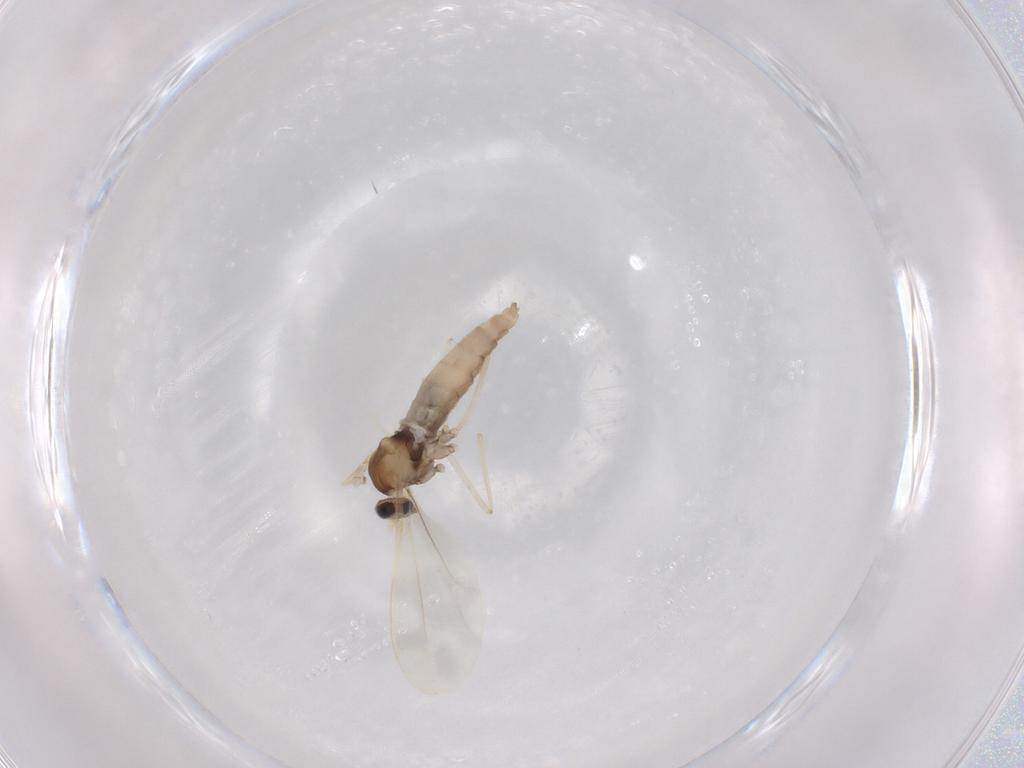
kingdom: Animalia
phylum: Arthropoda
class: Insecta
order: Diptera
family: Cecidomyiidae
